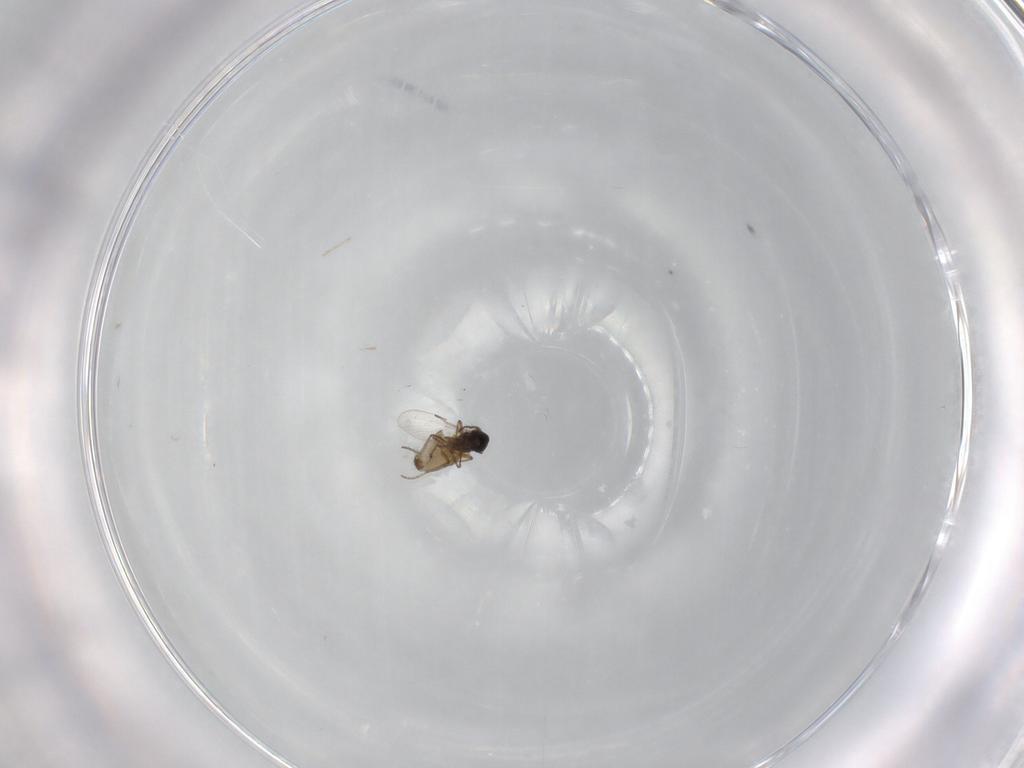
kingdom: Animalia
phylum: Arthropoda
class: Insecta
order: Diptera
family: Ceratopogonidae
